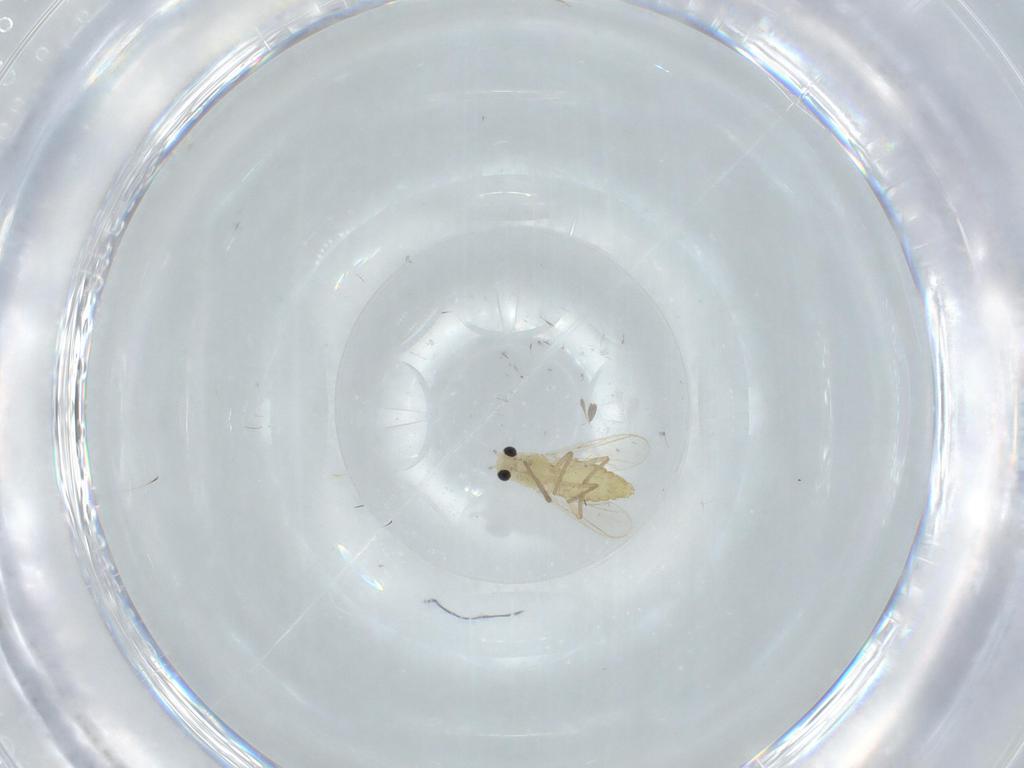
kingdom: Animalia
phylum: Arthropoda
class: Insecta
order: Diptera
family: Chironomidae
